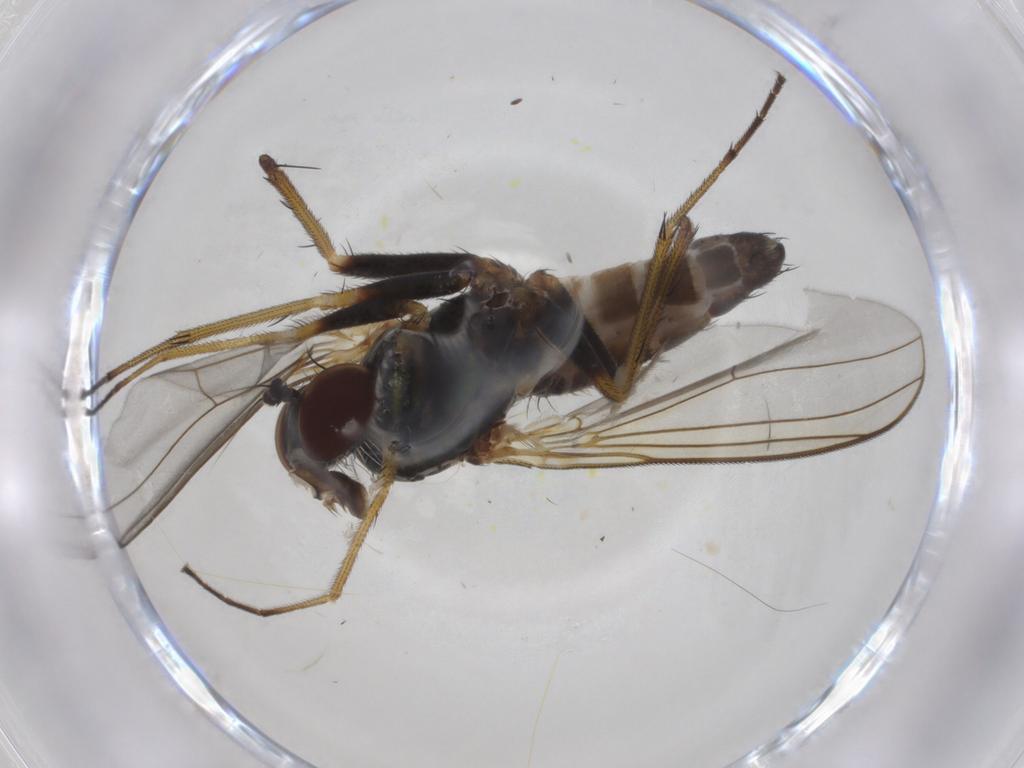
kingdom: Animalia
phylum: Arthropoda
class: Insecta
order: Diptera
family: Dolichopodidae
